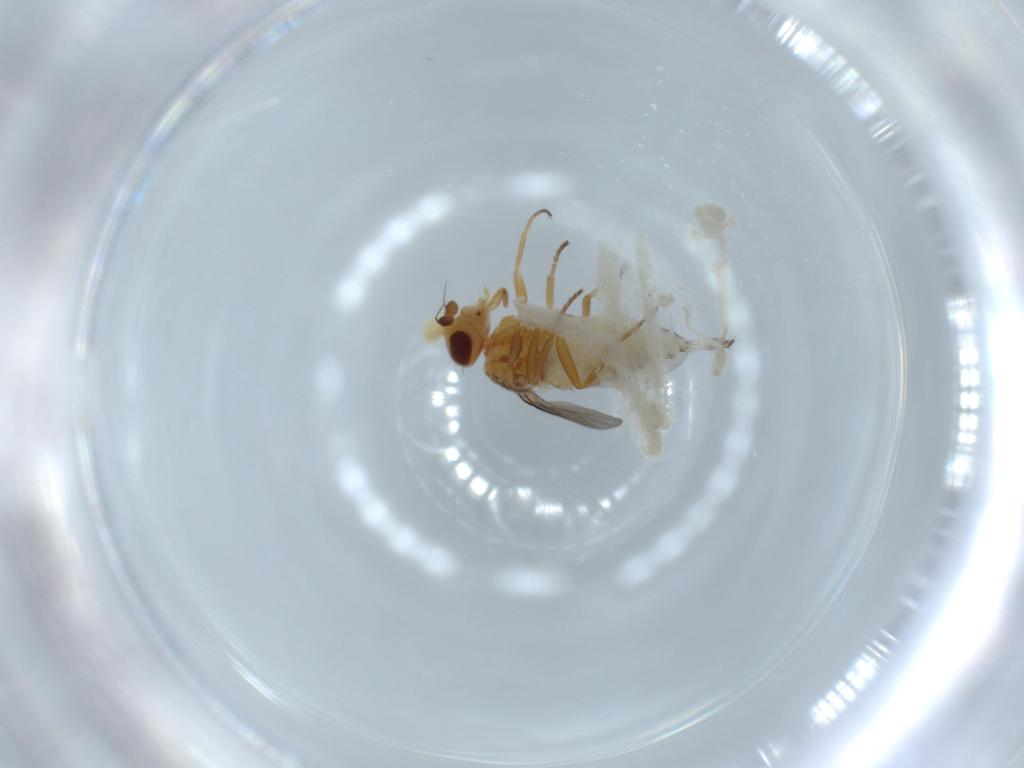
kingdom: Animalia
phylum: Arthropoda
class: Insecta
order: Diptera
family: Chloropidae
